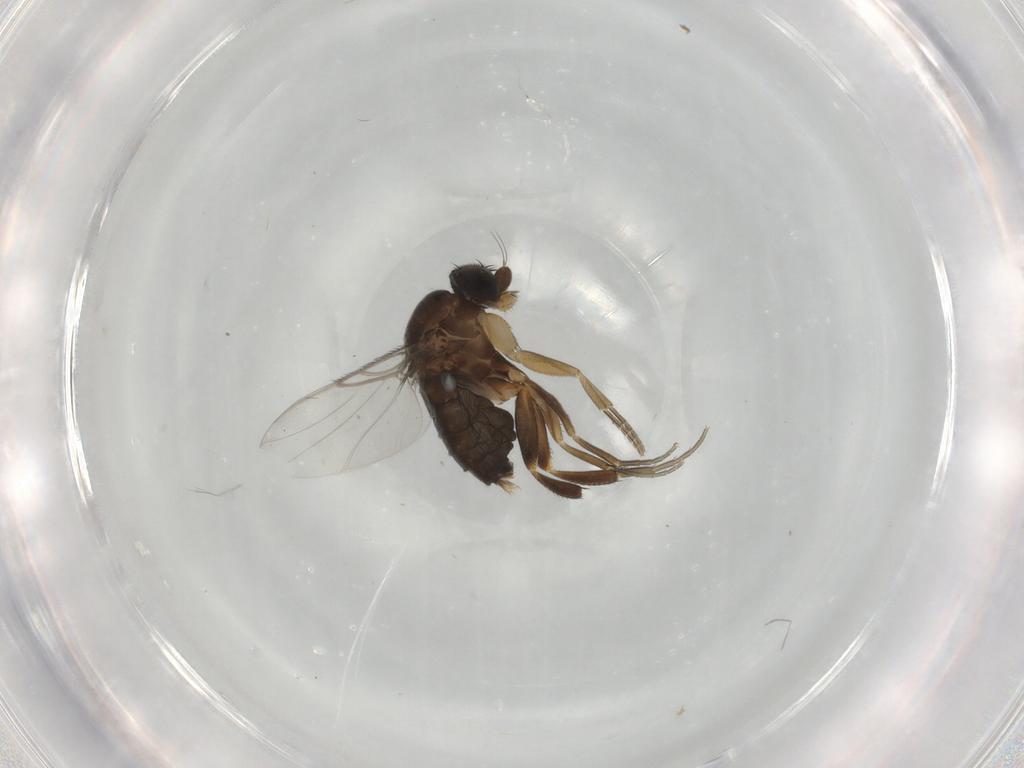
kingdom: Animalia
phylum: Arthropoda
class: Insecta
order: Diptera
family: Phoridae
